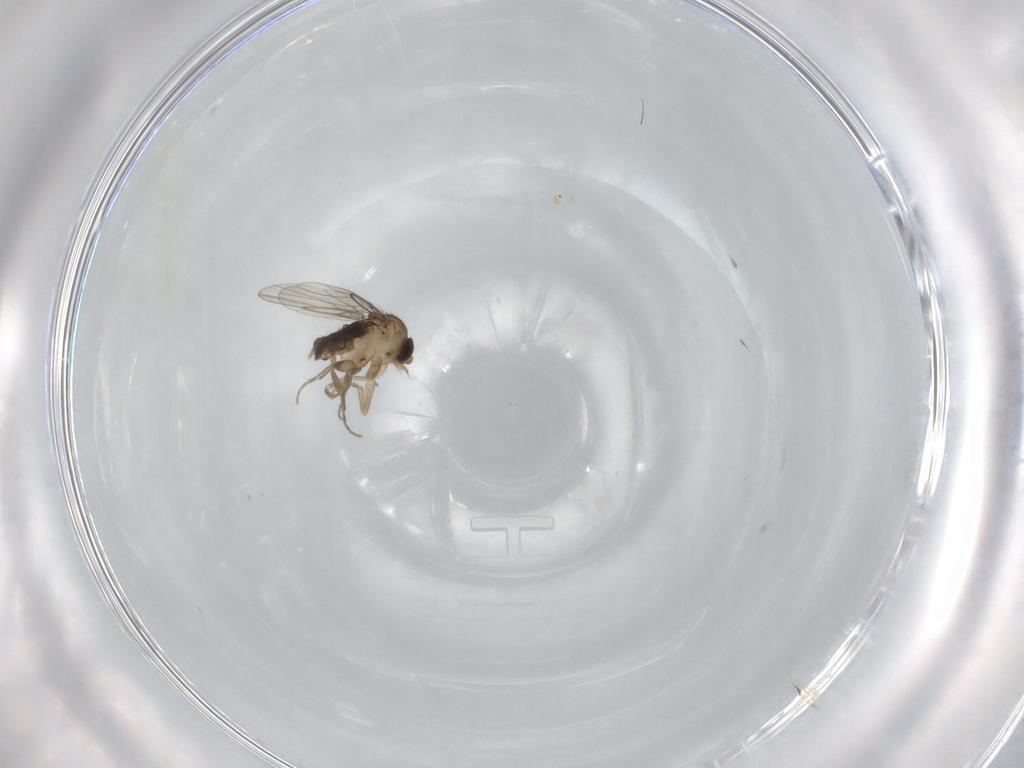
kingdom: Animalia
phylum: Arthropoda
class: Insecta
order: Diptera
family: Phoridae
